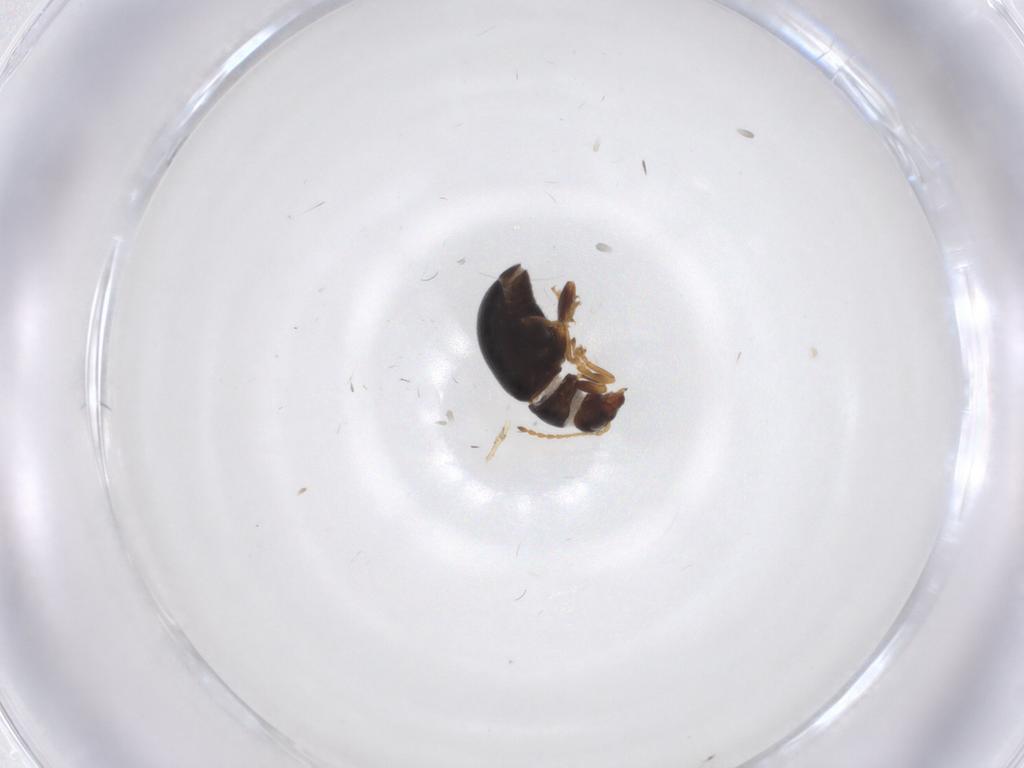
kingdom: Animalia
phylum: Arthropoda
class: Insecta
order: Coleoptera
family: Chrysomelidae
